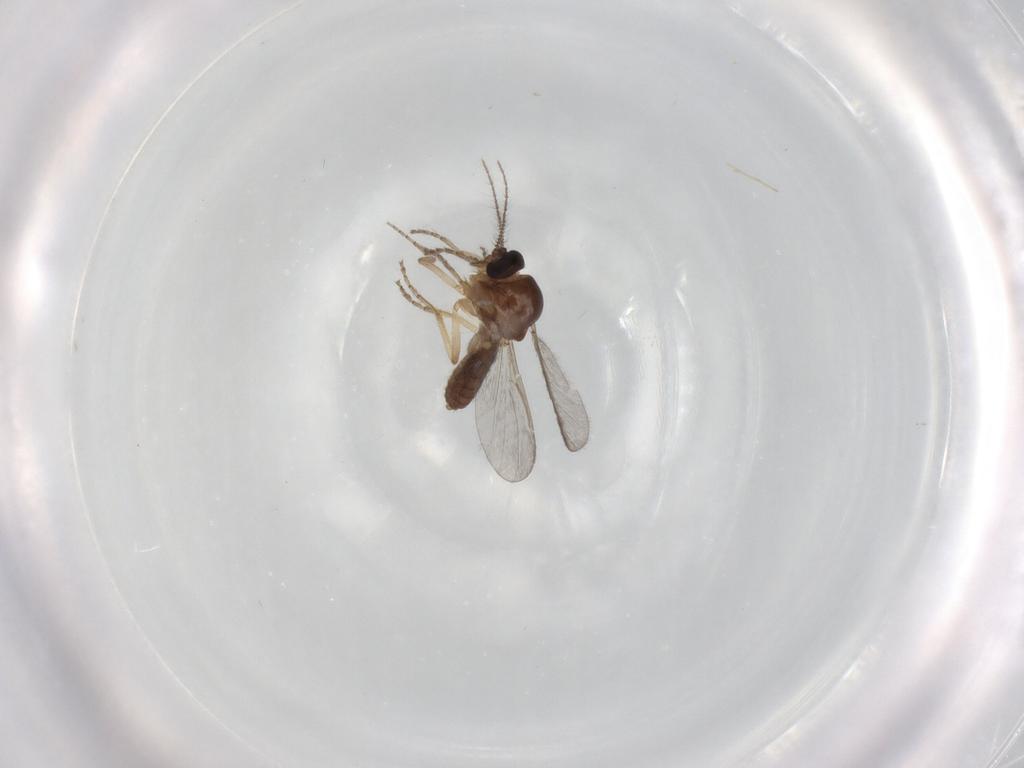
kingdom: Animalia
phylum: Arthropoda
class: Insecta
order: Diptera
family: Ceratopogonidae
